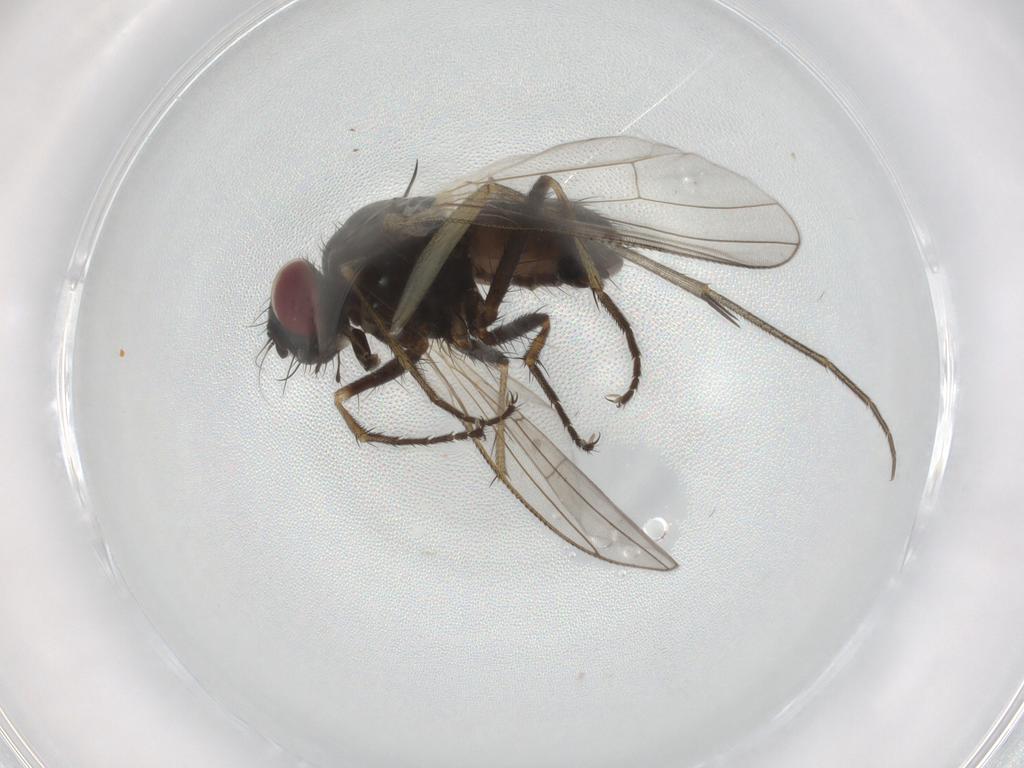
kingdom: Animalia
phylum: Arthropoda
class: Insecta
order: Diptera
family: Mycetophilidae
